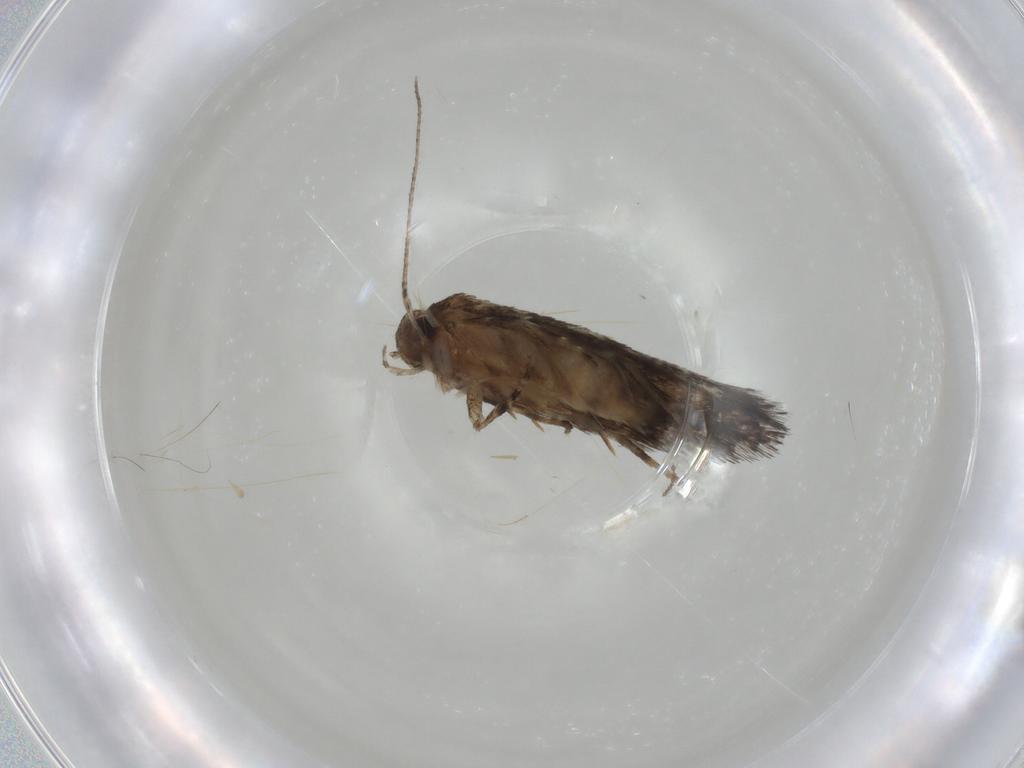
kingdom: Animalia
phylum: Arthropoda
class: Insecta
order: Lepidoptera
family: Elachistidae
